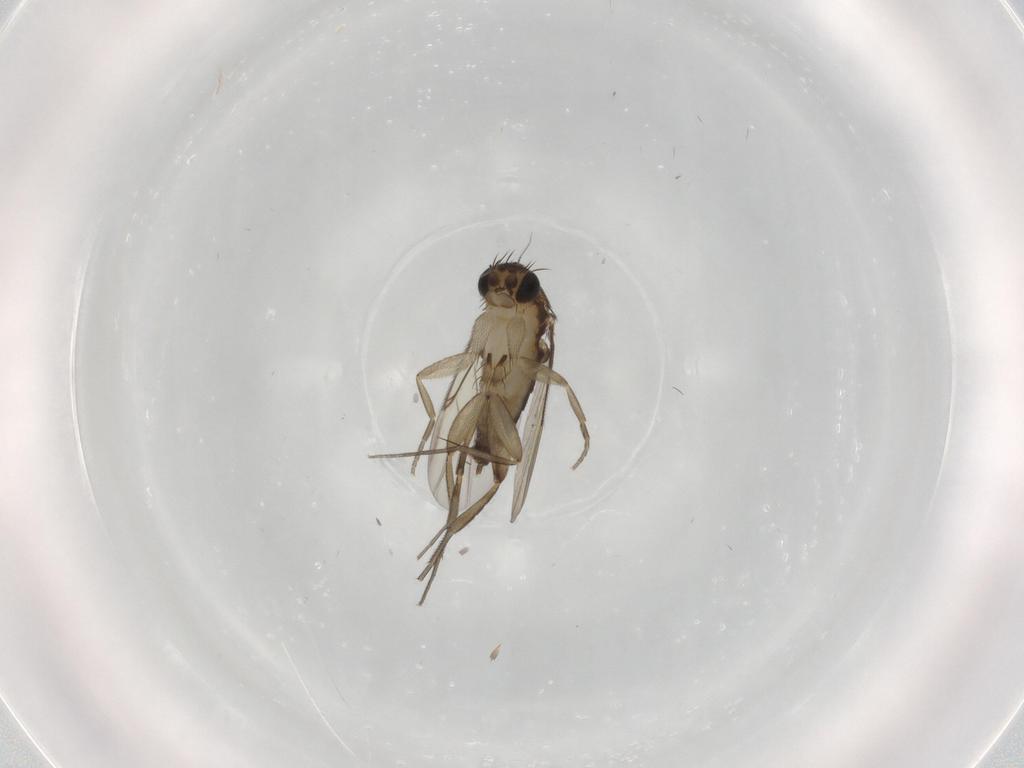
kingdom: Animalia
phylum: Arthropoda
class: Insecta
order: Diptera
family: Phoridae
